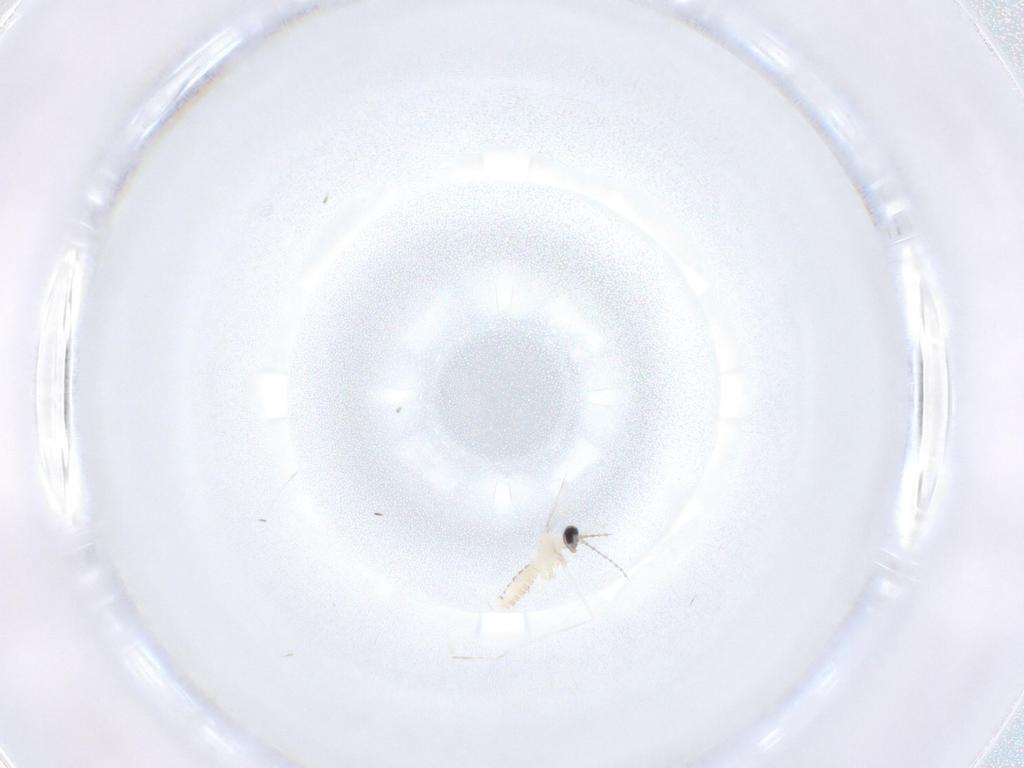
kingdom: Animalia
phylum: Arthropoda
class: Insecta
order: Diptera
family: Cecidomyiidae
